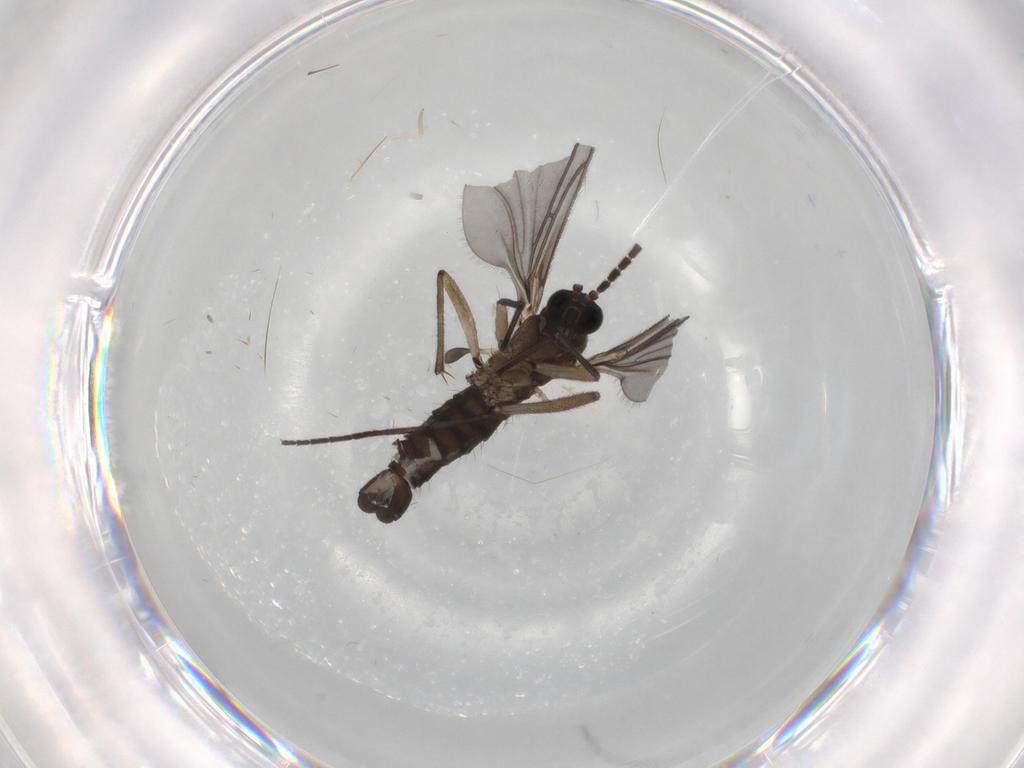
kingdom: Animalia
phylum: Arthropoda
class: Insecta
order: Diptera
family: Sciaridae
